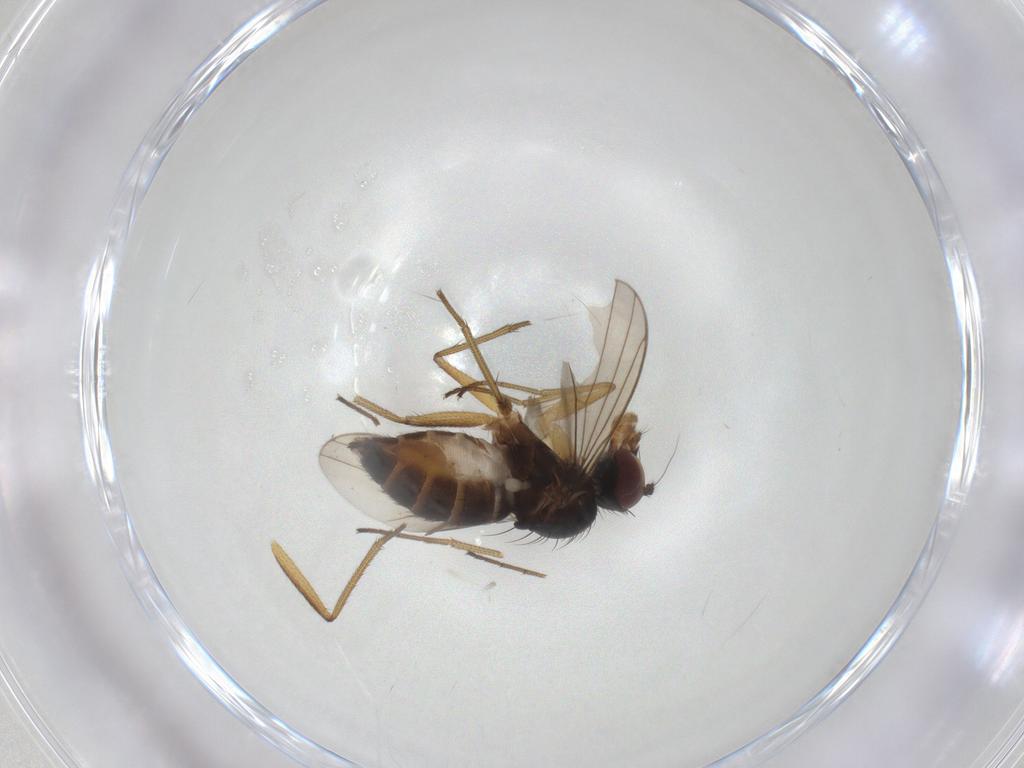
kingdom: Animalia
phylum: Arthropoda
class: Insecta
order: Diptera
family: Dolichopodidae
